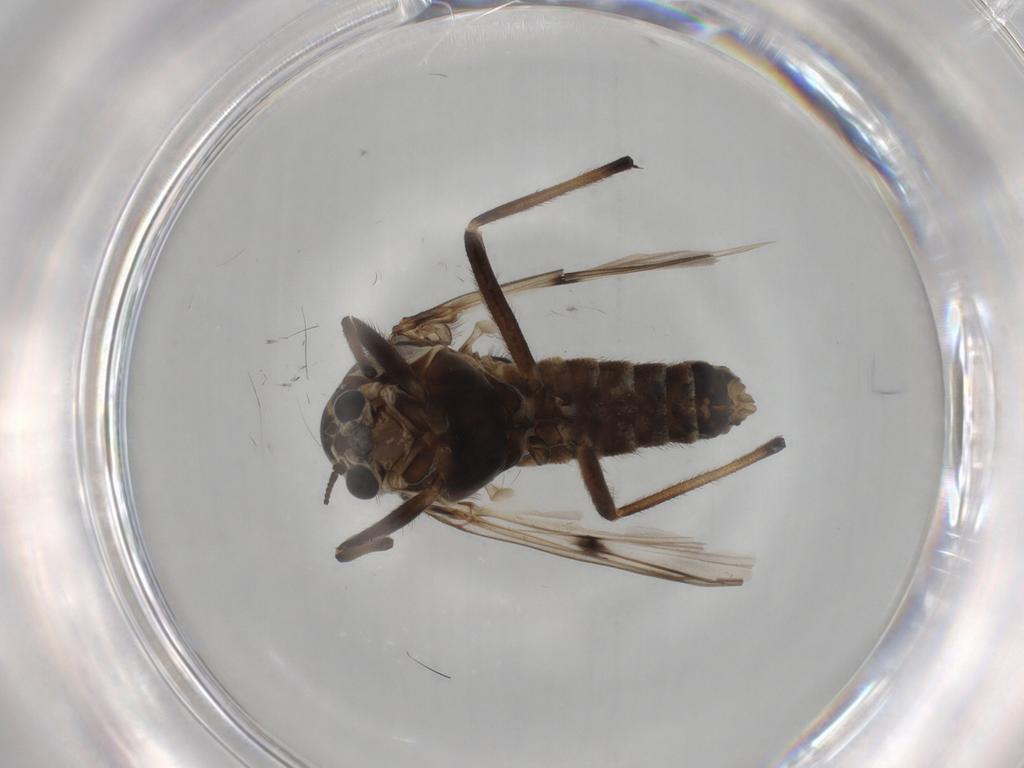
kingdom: Animalia
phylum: Arthropoda
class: Insecta
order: Diptera
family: Chironomidae
